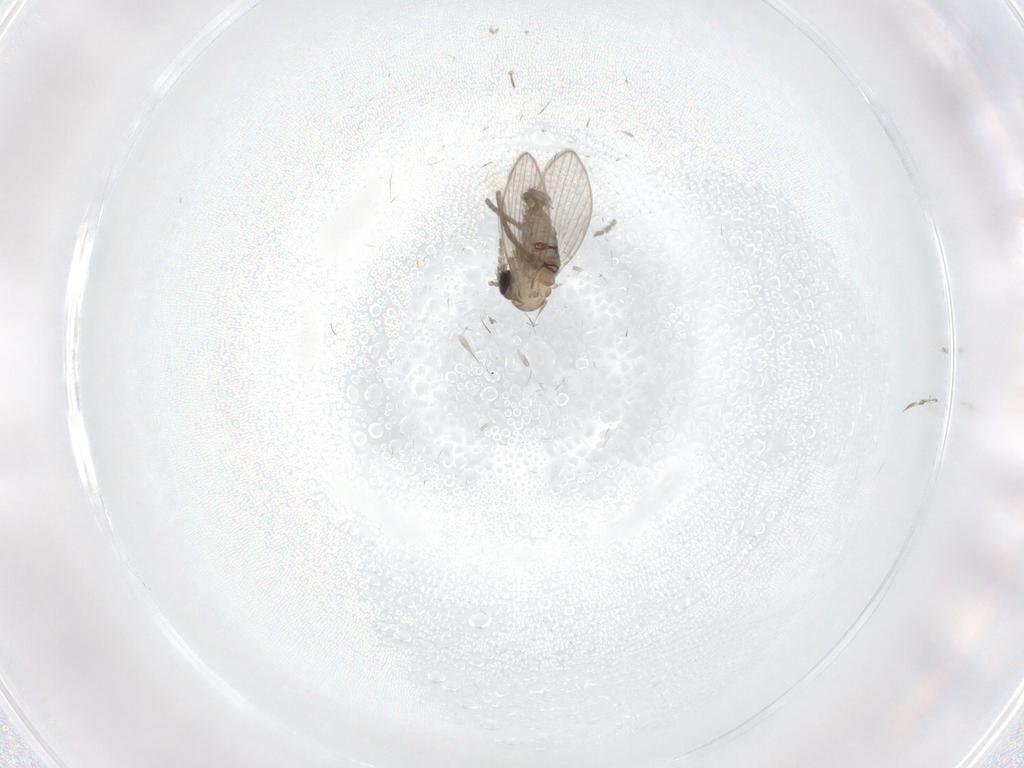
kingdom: Animalia
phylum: Arthropoda
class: Insecta
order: Diptera
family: Psychodidae
